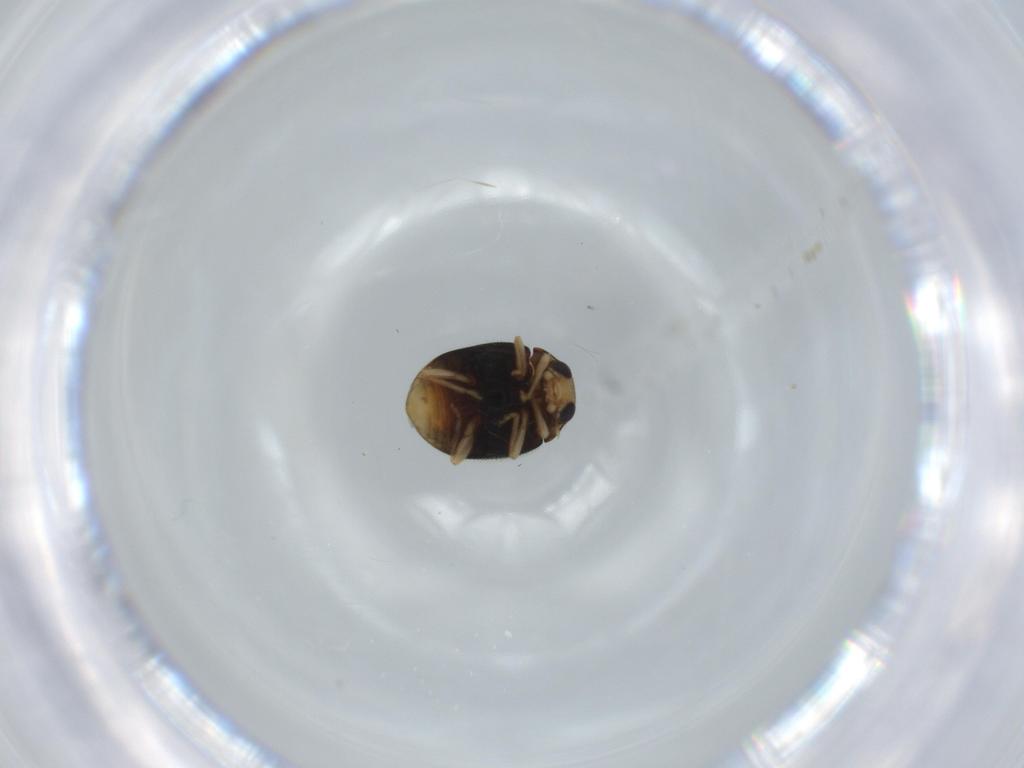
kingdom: Animalia
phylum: Arthropoda
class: Insecta
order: Coleoptera
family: Coccinellidae
